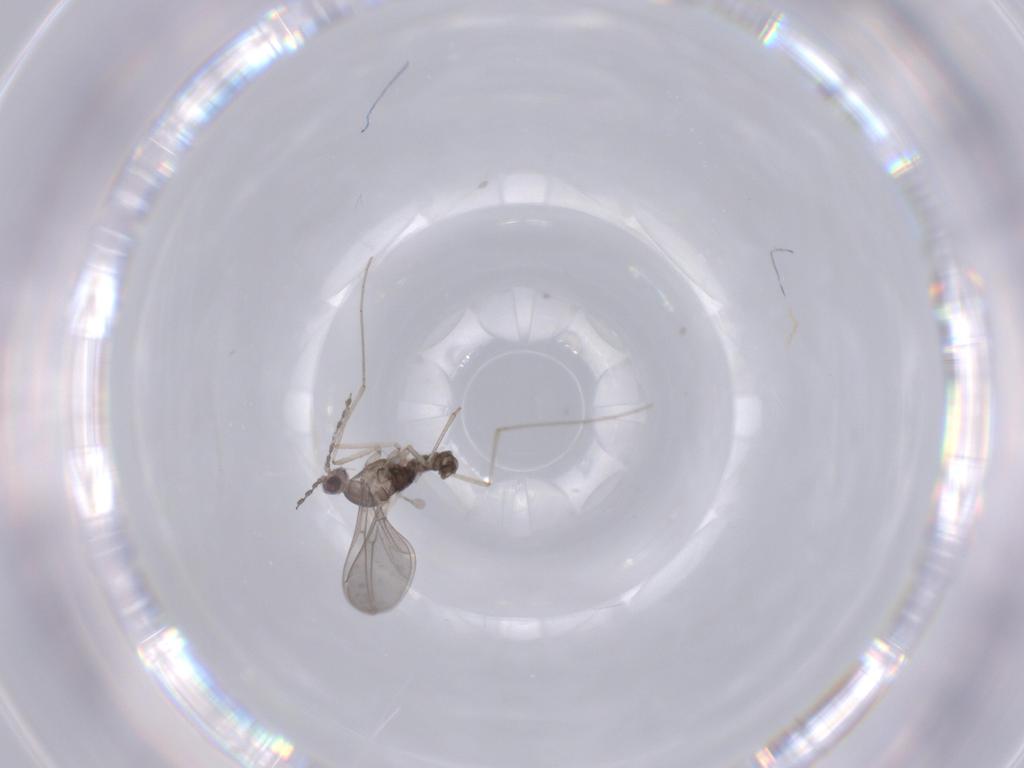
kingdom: Animalia
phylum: Arthropoda
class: Insecta
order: Diptera
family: Cecidomyiidae
